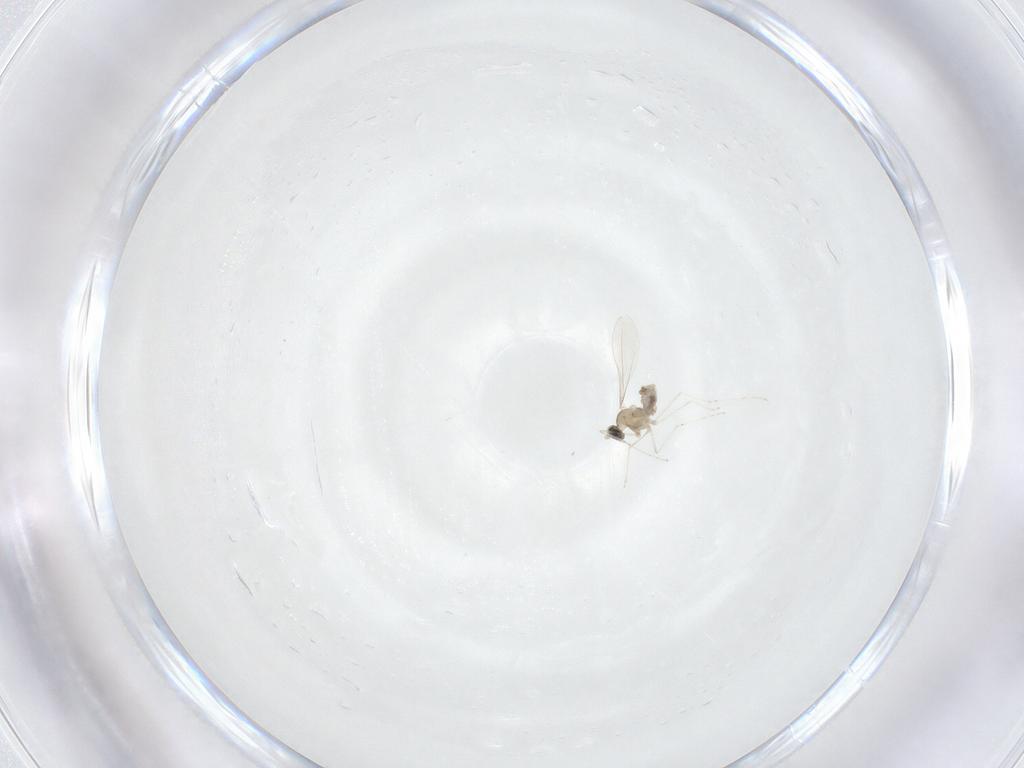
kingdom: Animalia
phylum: Arthropoda
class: Insecta
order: Diptera
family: Cecidomyiidae
